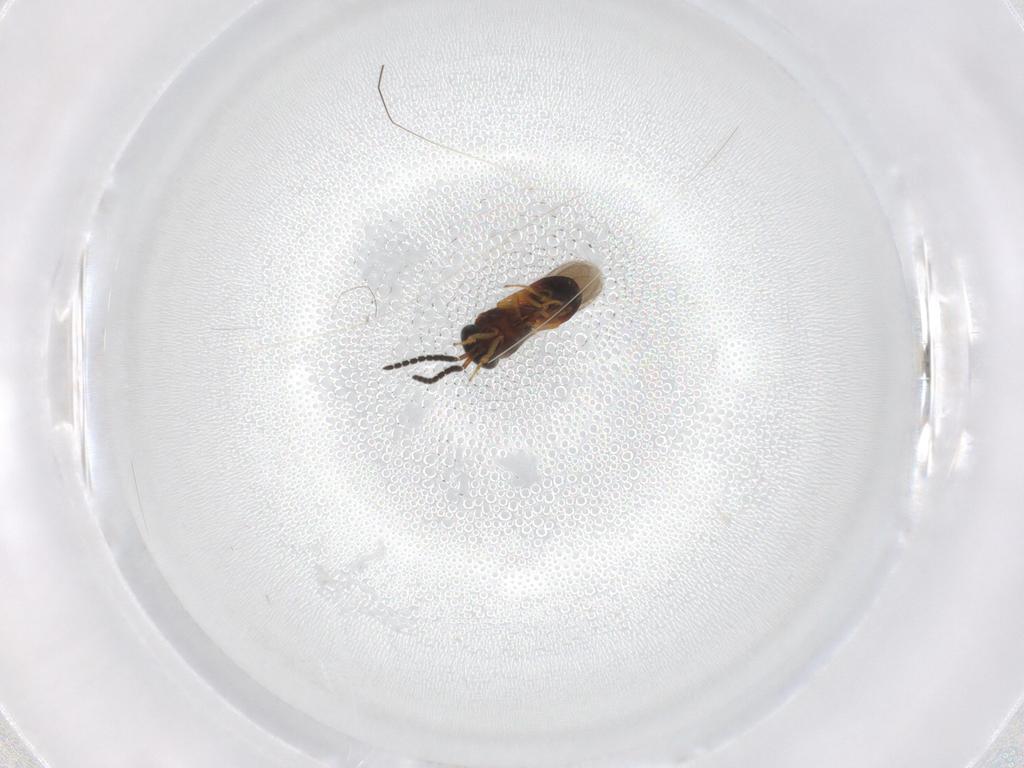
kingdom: Animalia
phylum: Arthropoda
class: Insecta
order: Hymenoptera
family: Scelionidae
